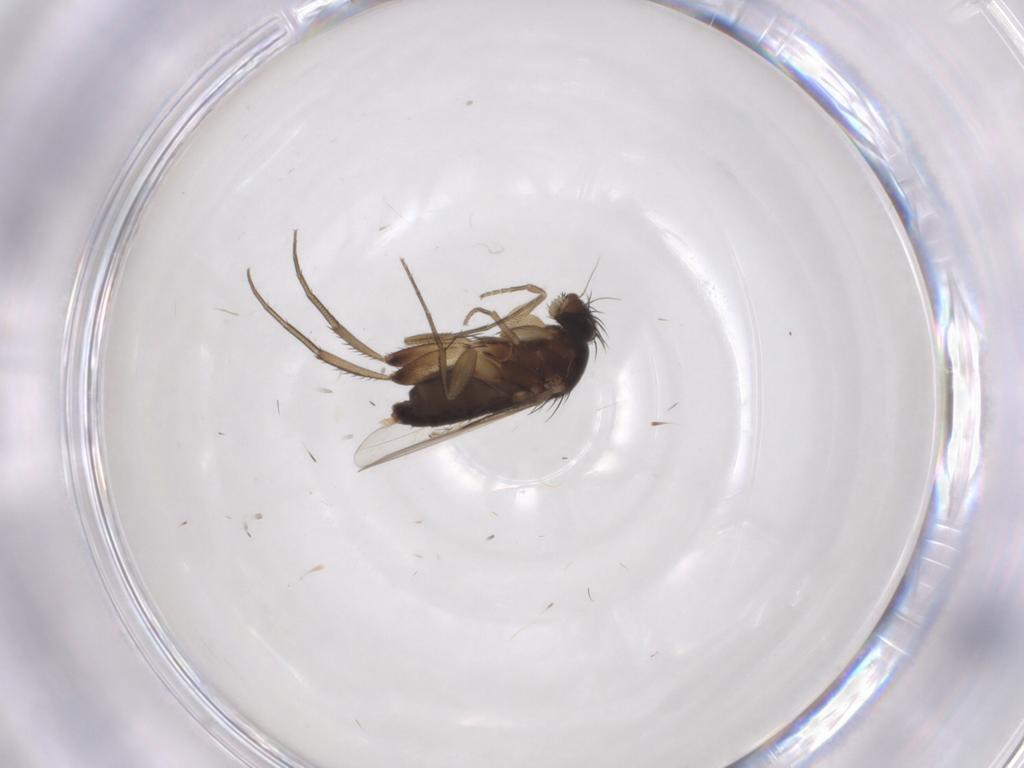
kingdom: Animalia
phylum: Arthropoda
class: Insecta
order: Diptera
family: Phoridae
